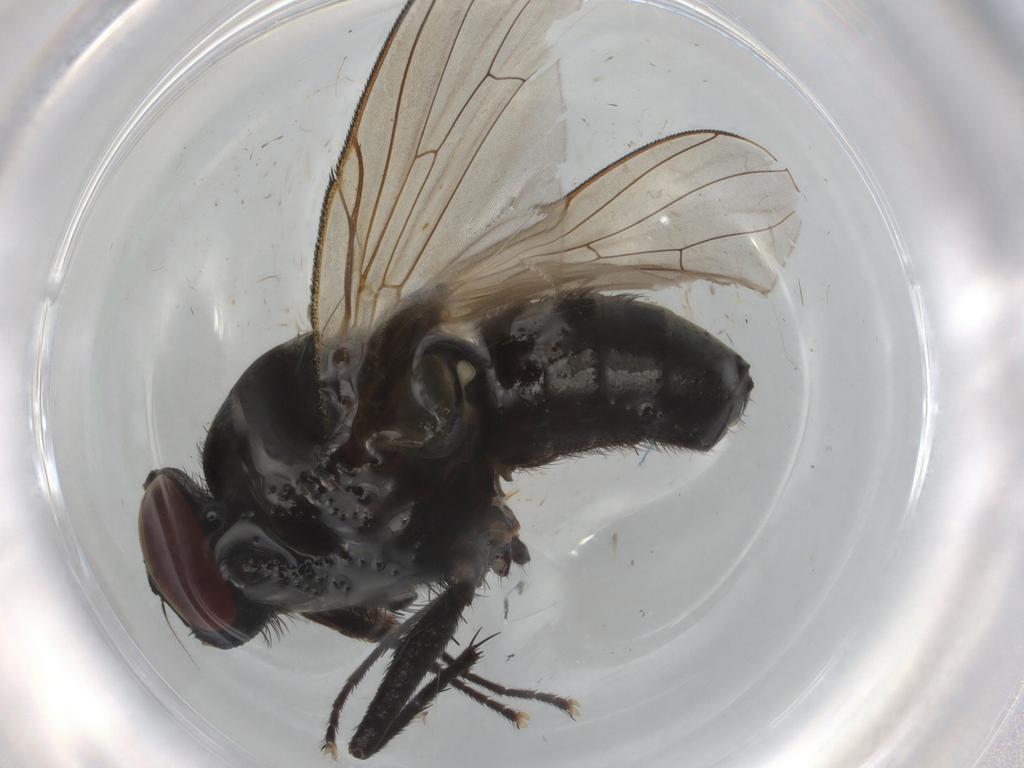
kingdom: Animalia
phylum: Arthropoda
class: Insecta
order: Diptera
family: Muscidae
